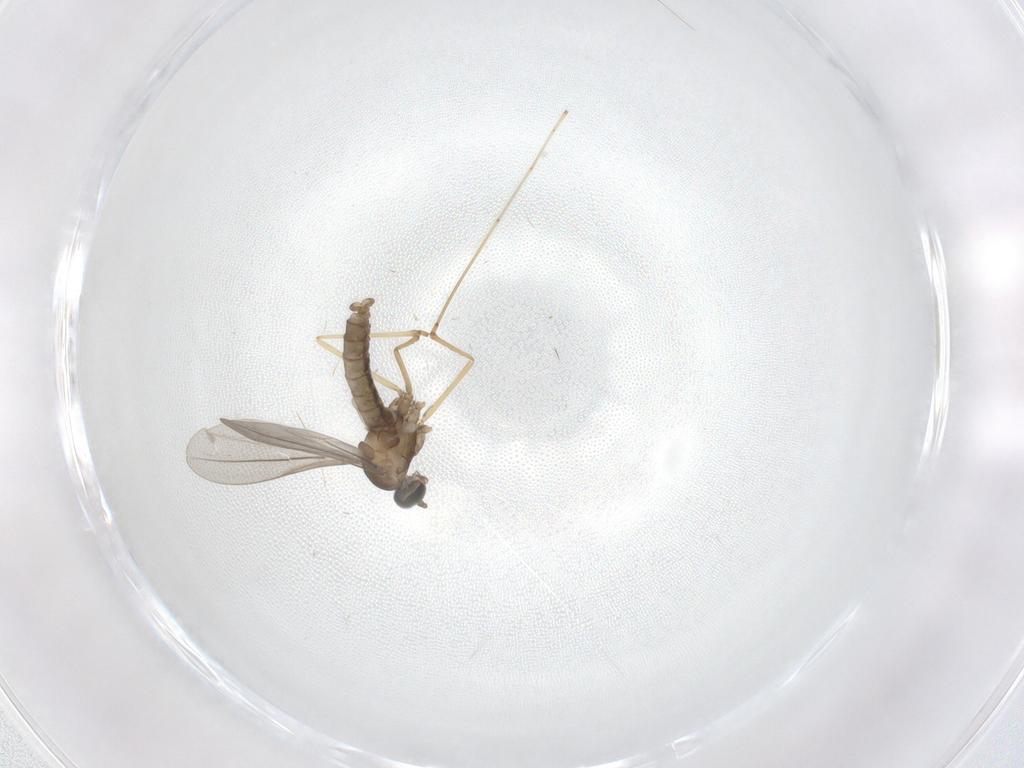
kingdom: Animalia
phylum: Arthropoda
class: Insecta
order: Diptera
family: Cecidomyiidae
